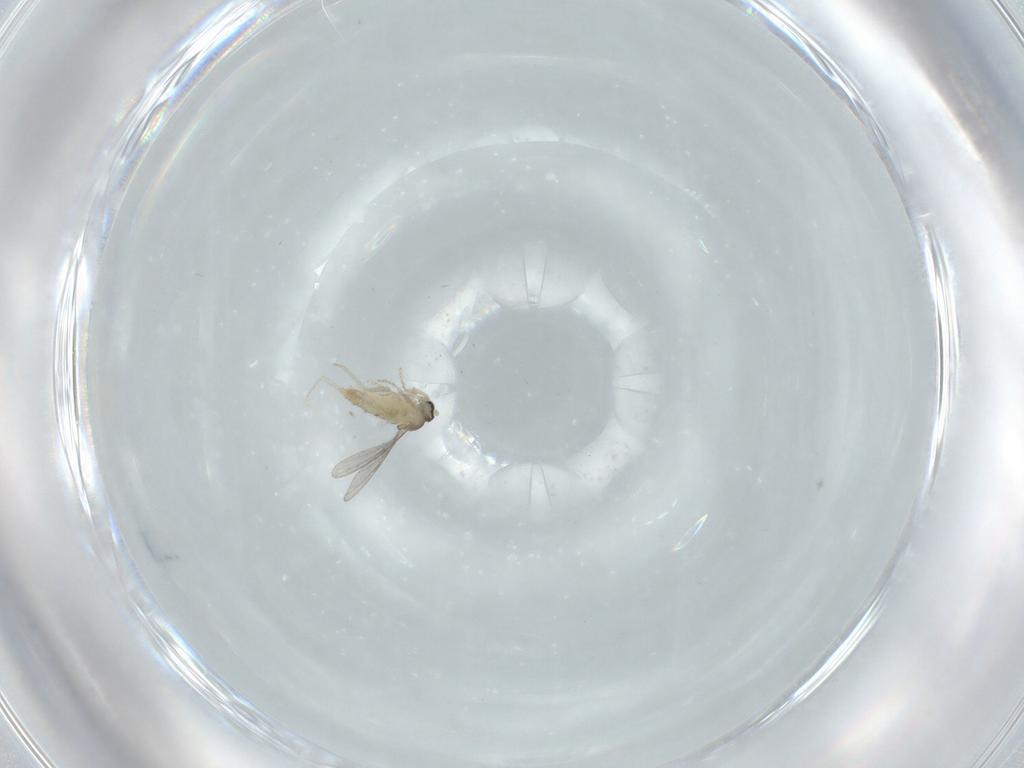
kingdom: Animalia
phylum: Arthropoda
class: Insecta
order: Diptera
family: Cecidomyiidae
